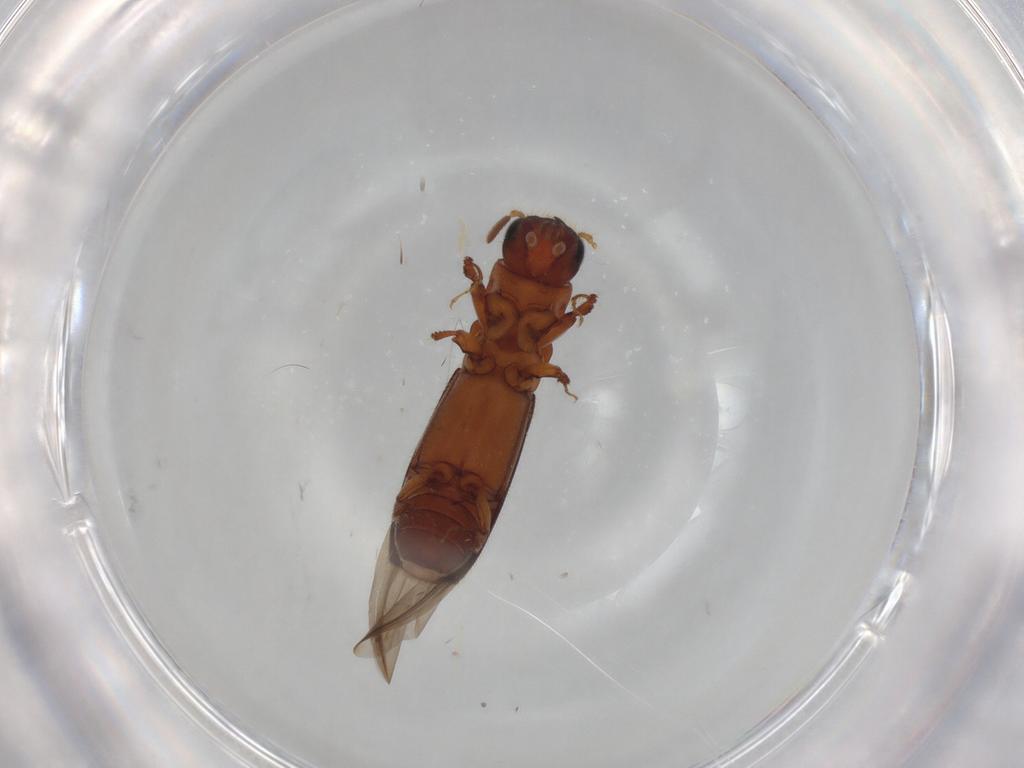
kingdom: Animalia
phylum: Arthropoda
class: Insecta
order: Coleoptera
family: Curculionidae
